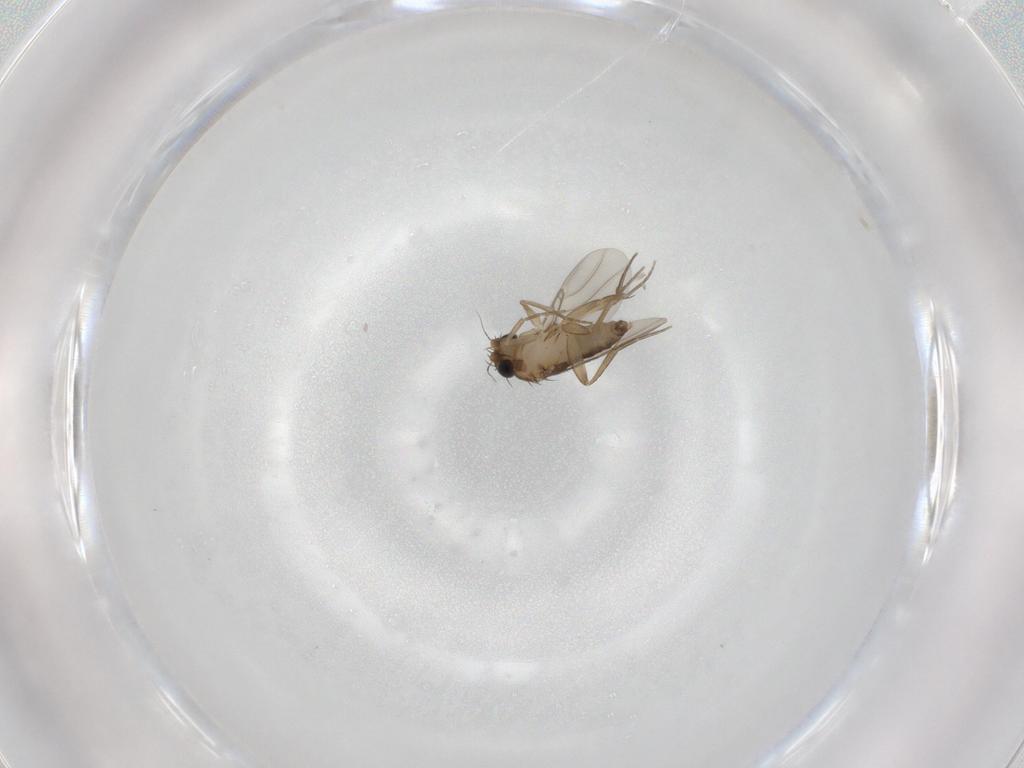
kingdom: Animalia
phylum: Arthropoda
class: Insecta
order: Diptera
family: Phoridae
